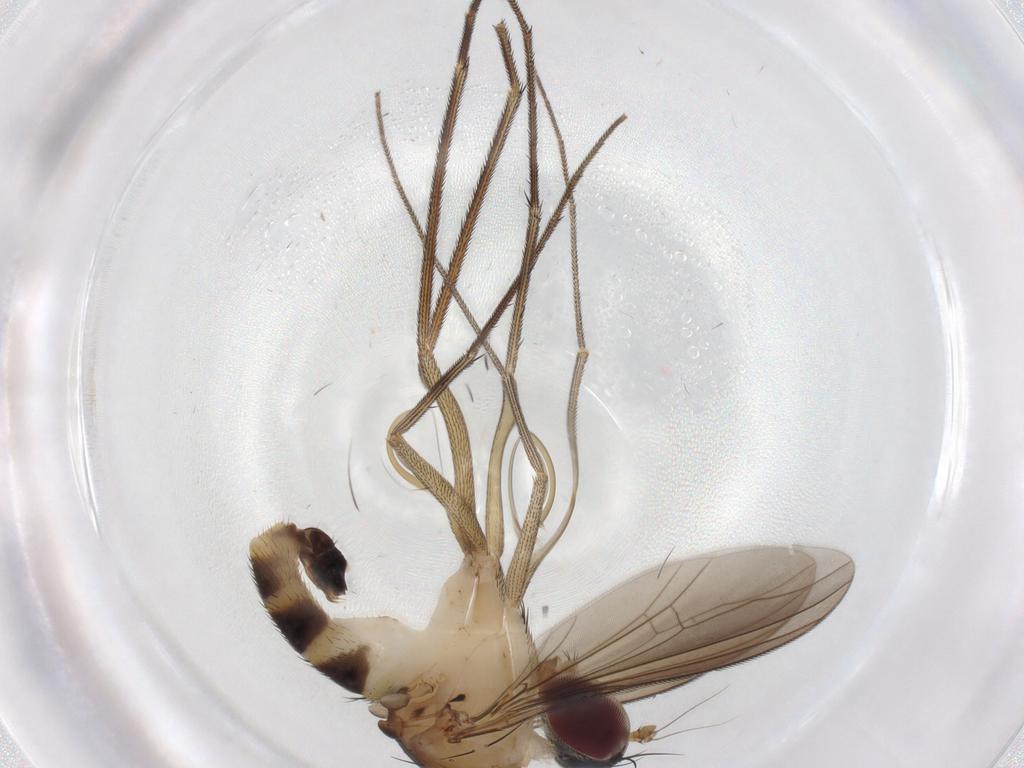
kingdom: Animalia
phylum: Arthropoda
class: Insecta
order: Diptera
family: Dolichopodidae
